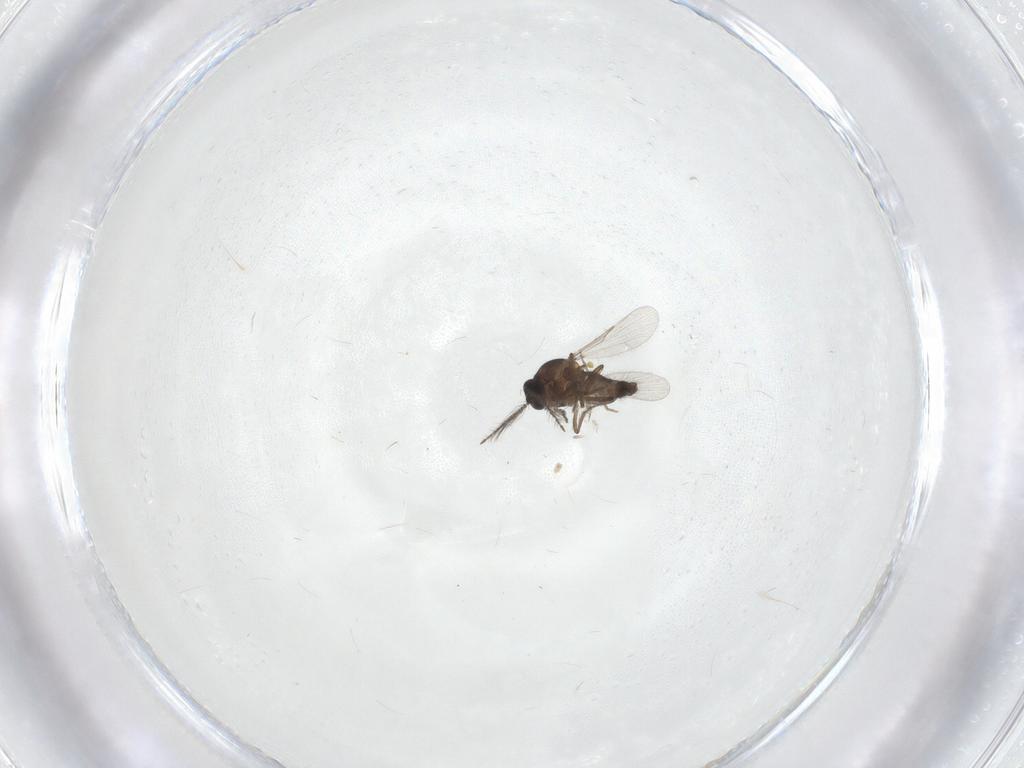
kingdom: Animalia
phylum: Arthropoda
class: Insecta
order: Diptera
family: Chironomidae
